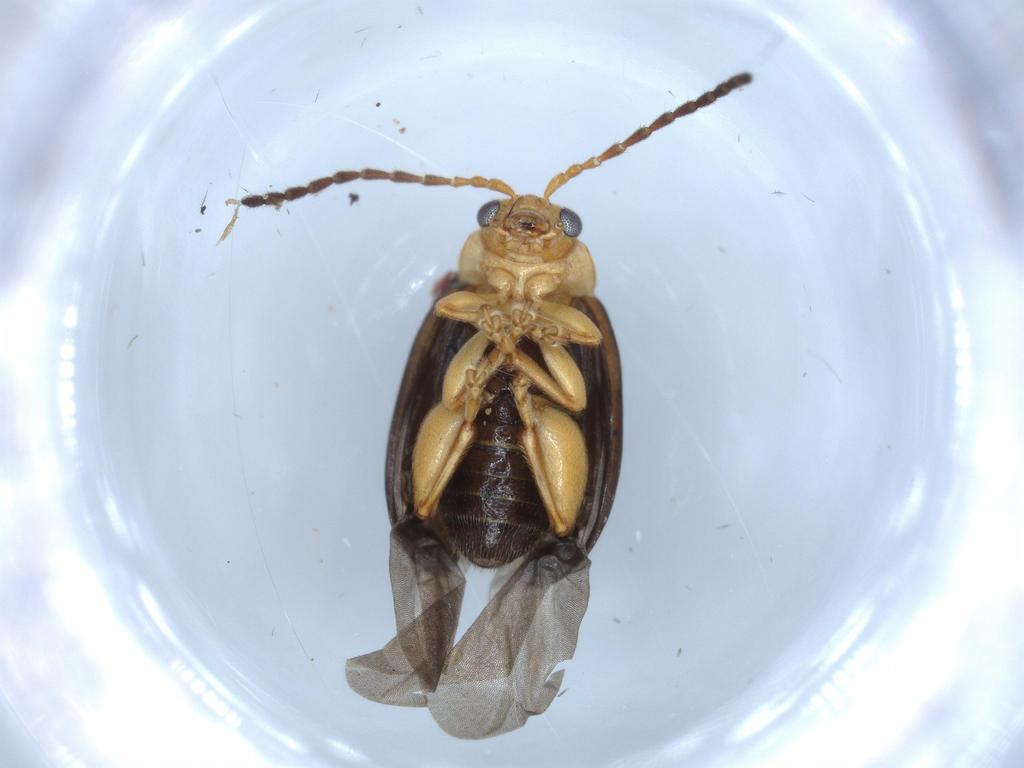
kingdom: Animalia
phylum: Arthropoda
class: Insecta
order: Coleoptera
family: Chrysomelidae
